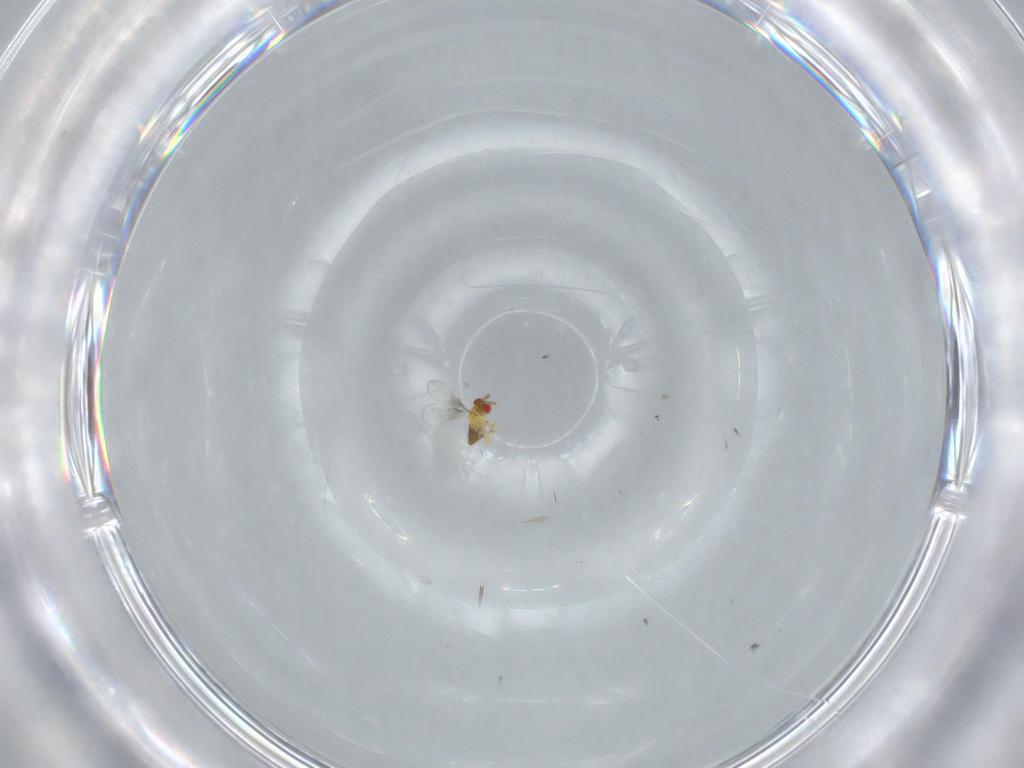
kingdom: Animalia
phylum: Arthropoda
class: Insecta
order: Hymenoptera
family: Trichogrammatidae
